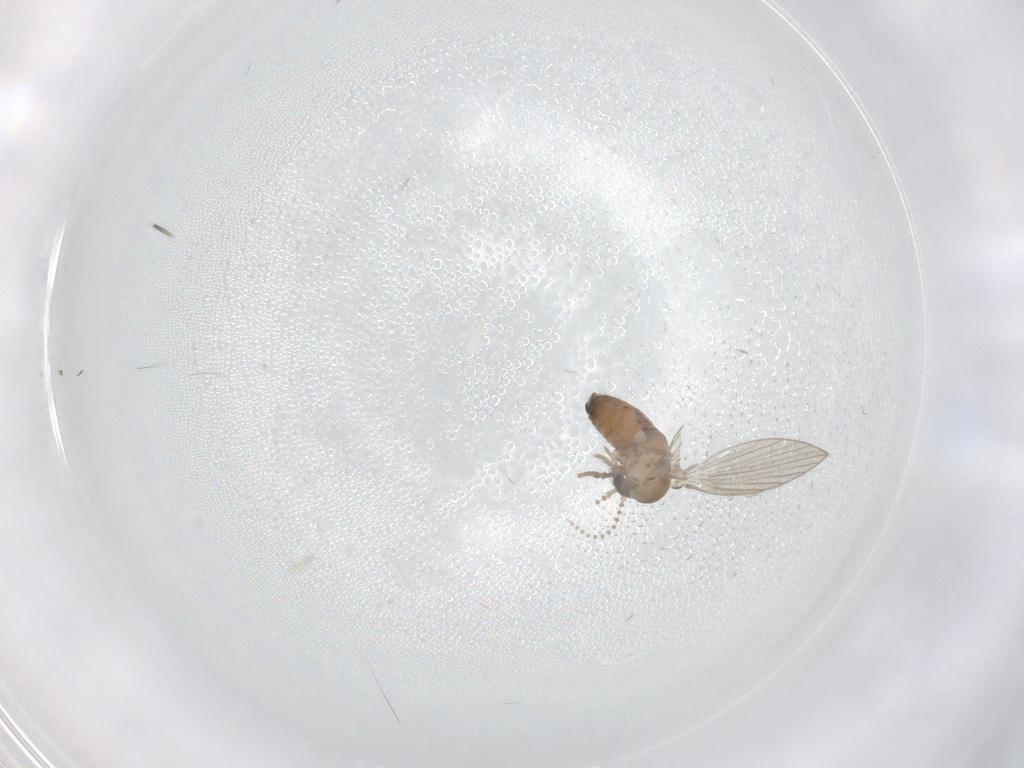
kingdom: Animalia
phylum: Arthropoda
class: Insecta
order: Diptera
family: Psychodidae
